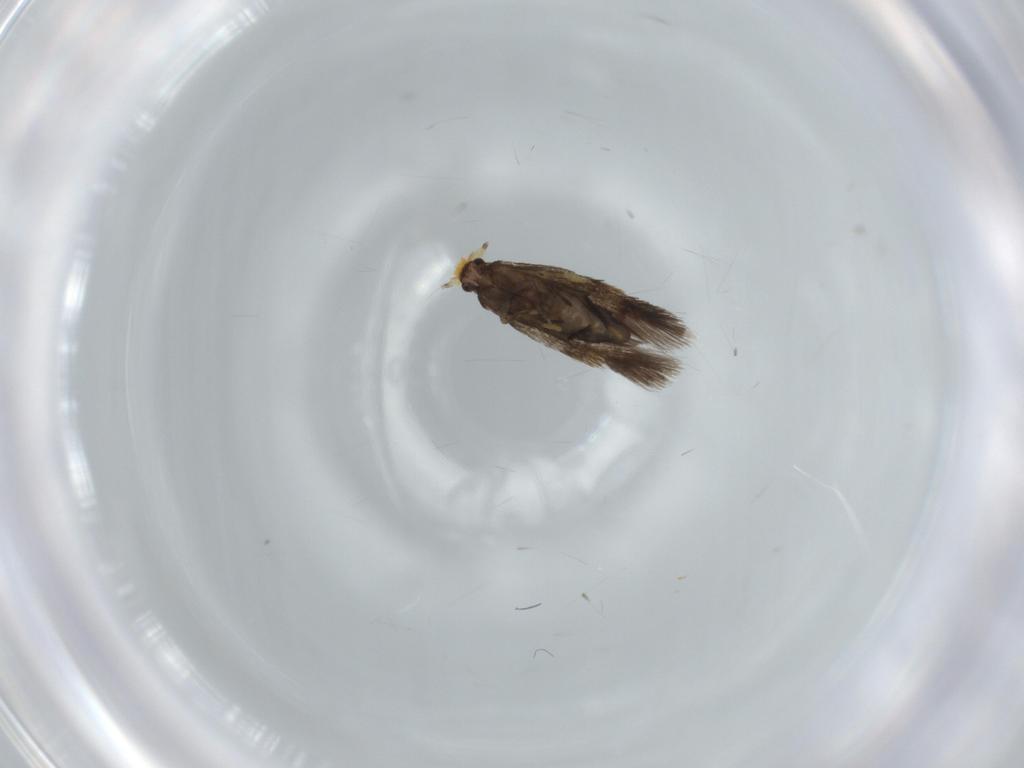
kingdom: Animalia
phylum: Arthropoda
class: Insecta
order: Lepidoptera
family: Nepticulidae
